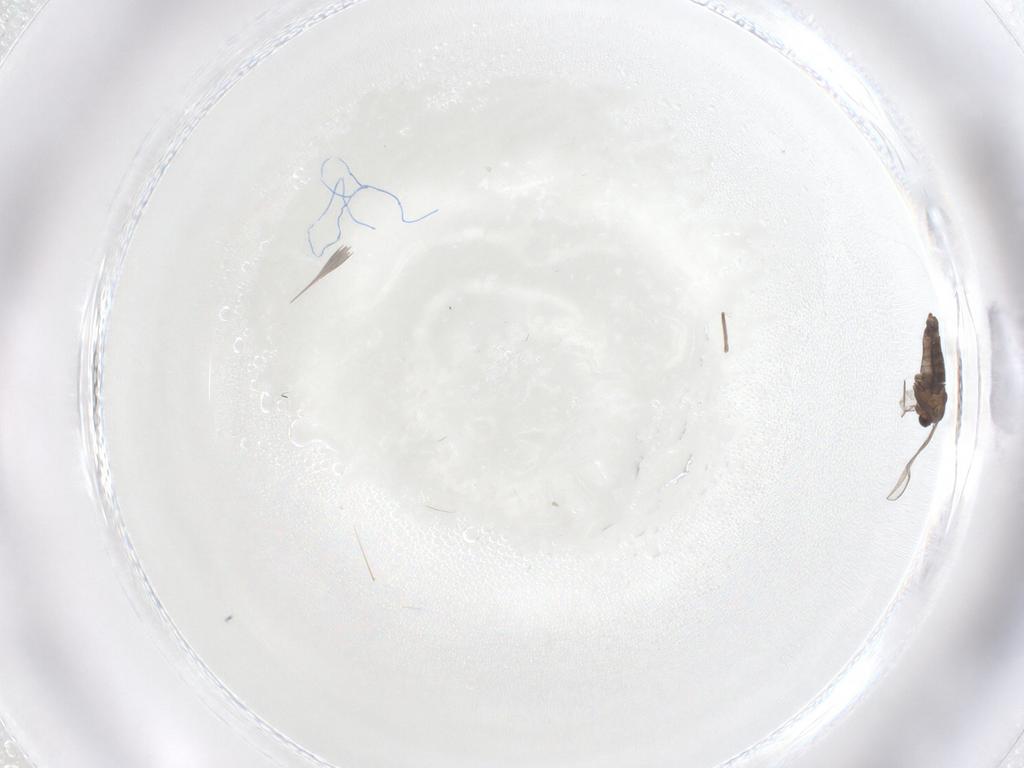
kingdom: Animalia
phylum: Arthropoda
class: Insecta
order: Diptera
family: Chironomidae
